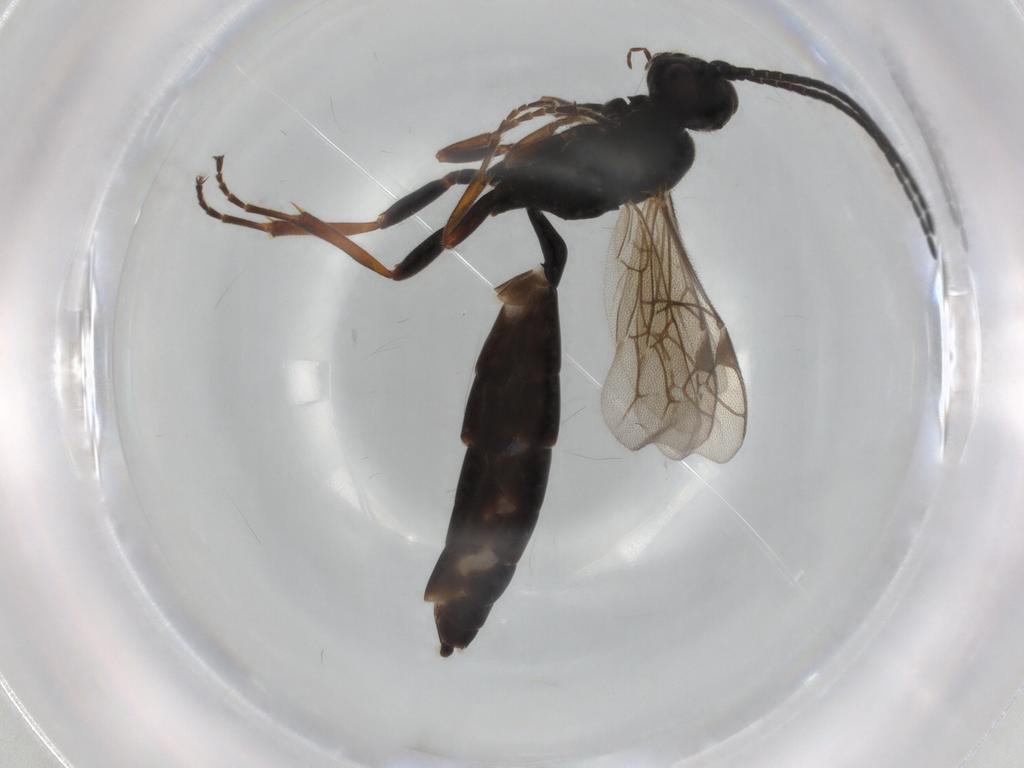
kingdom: Animalia
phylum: Arthropoda
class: Insecta
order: Hymenoptera
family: Ichneumonidae
